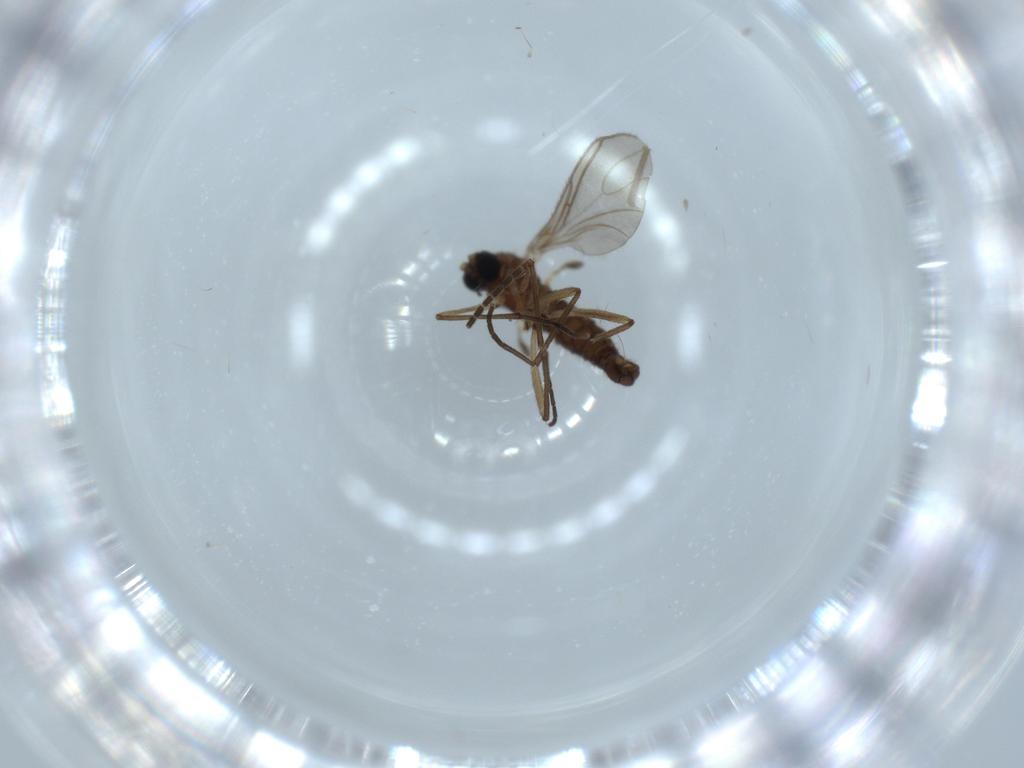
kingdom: Animalia
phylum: Arthropoda
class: Insecta
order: Diptera
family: Sciaridae
